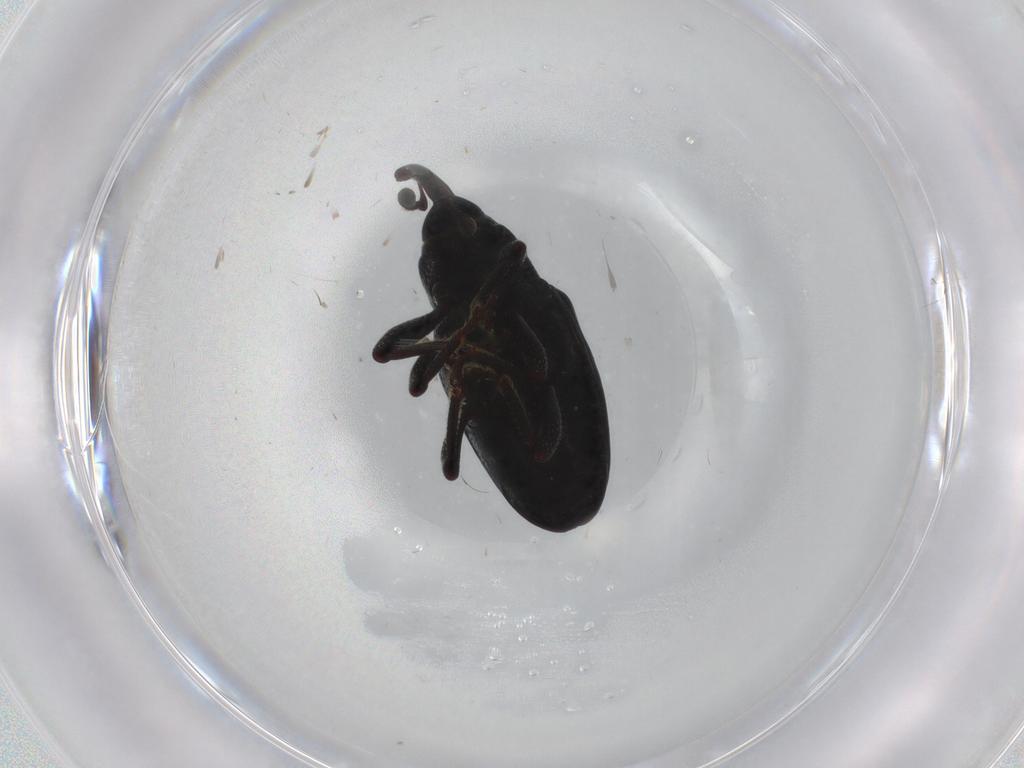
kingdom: Animalia
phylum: Arthropoda
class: Insecta
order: Coleoptera
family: Curculionidae
